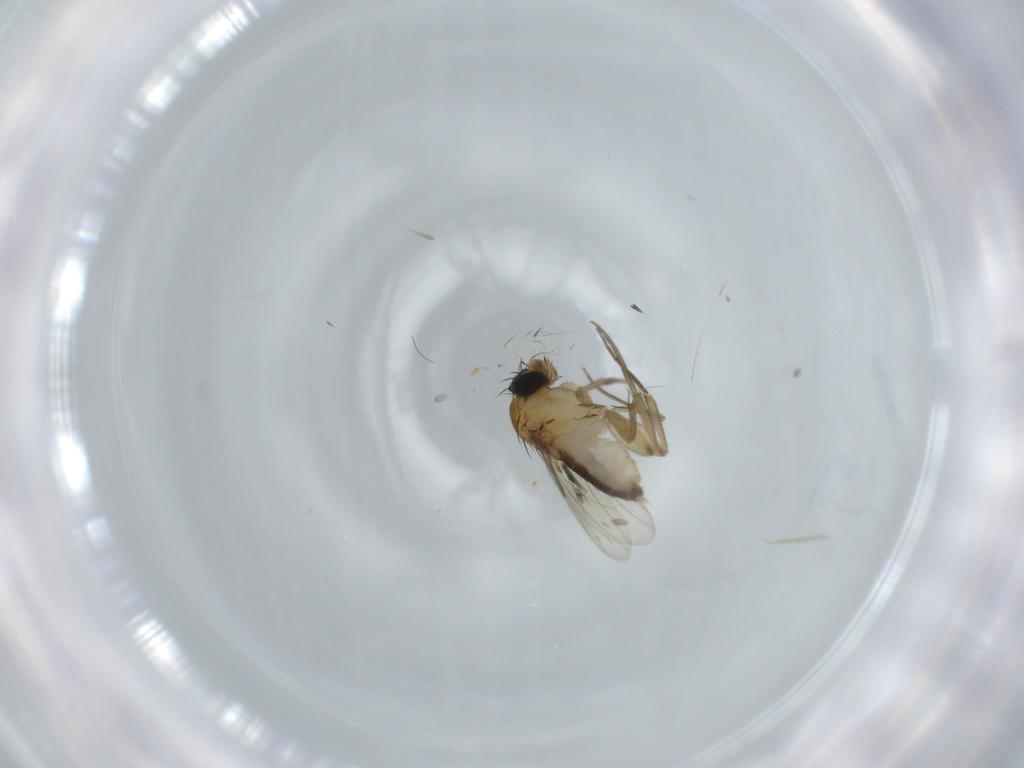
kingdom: Animalia
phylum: Arthropoda
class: Insecta
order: Diptera
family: Phoridae
